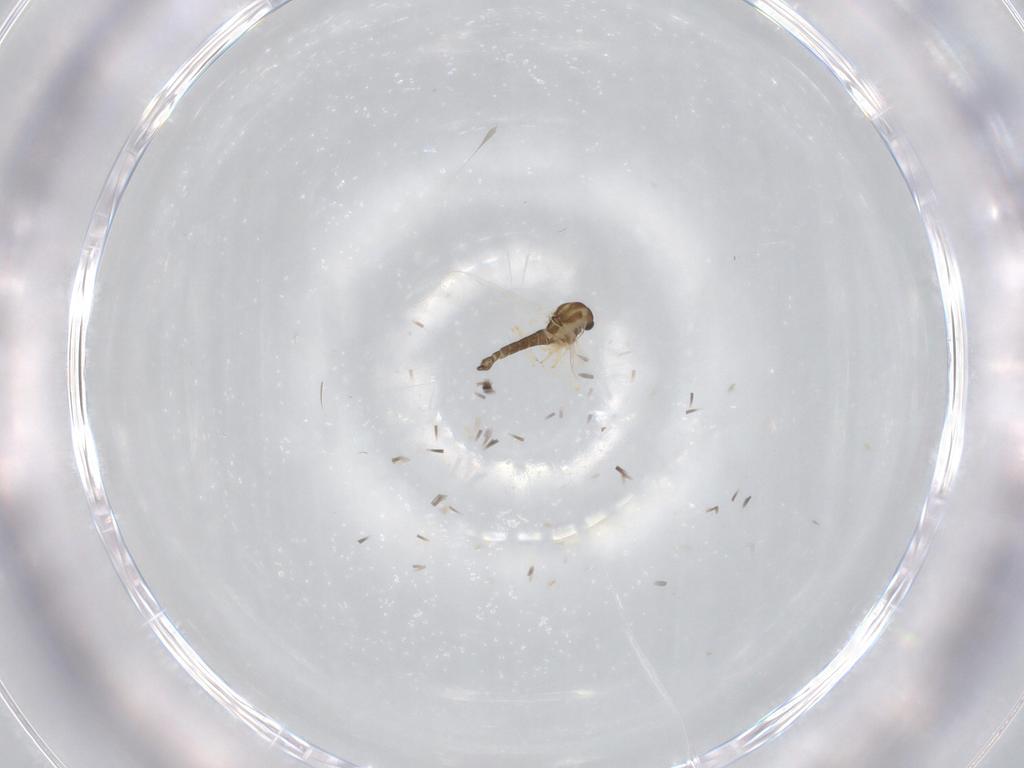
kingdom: Animalia
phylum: Arthropoda
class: Insecta
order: Diptera
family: Chironomidae
